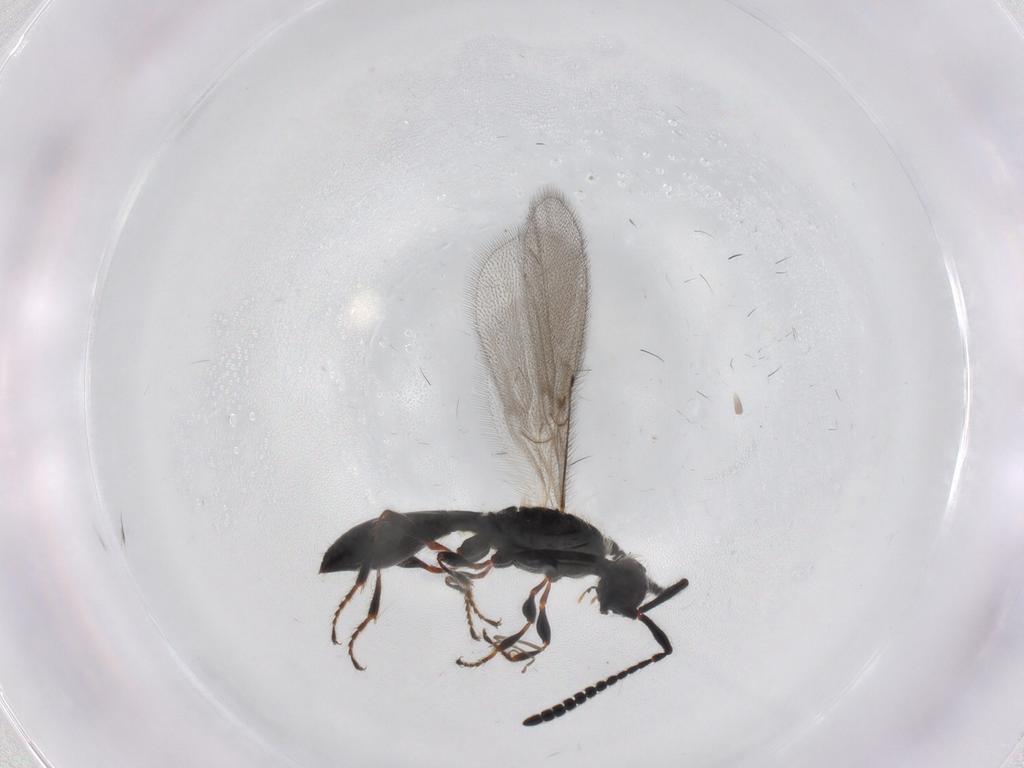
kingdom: Animalia
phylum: Arthropoda
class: Insecta
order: Hymenoptera
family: Diapriidae
